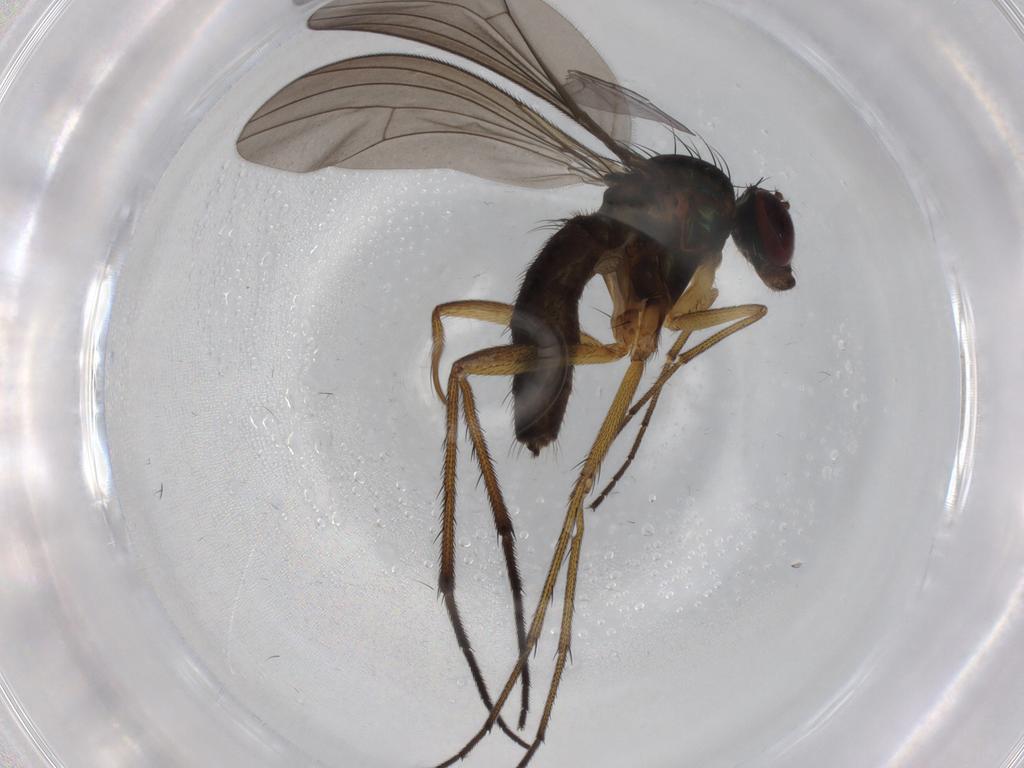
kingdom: Animalia
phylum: Arthropoda
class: Insecta
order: Diptera
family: Dolichopodidae
